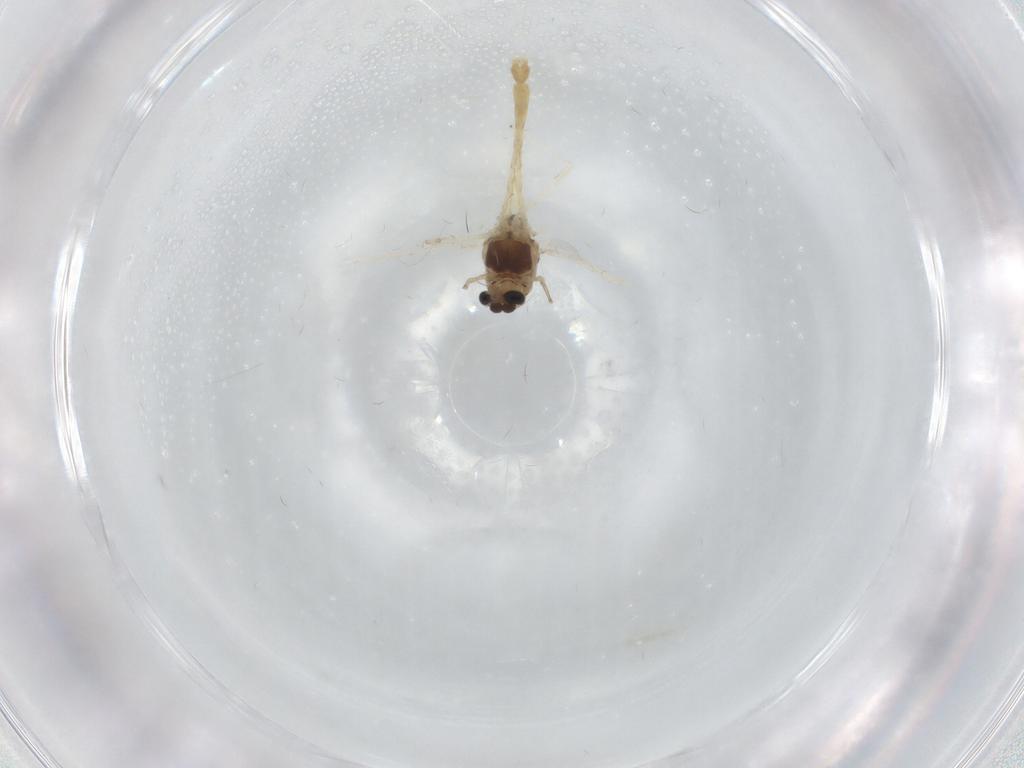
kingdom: Animalia
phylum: Arthropoda
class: Insecta
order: Diptera
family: Chironomidae
